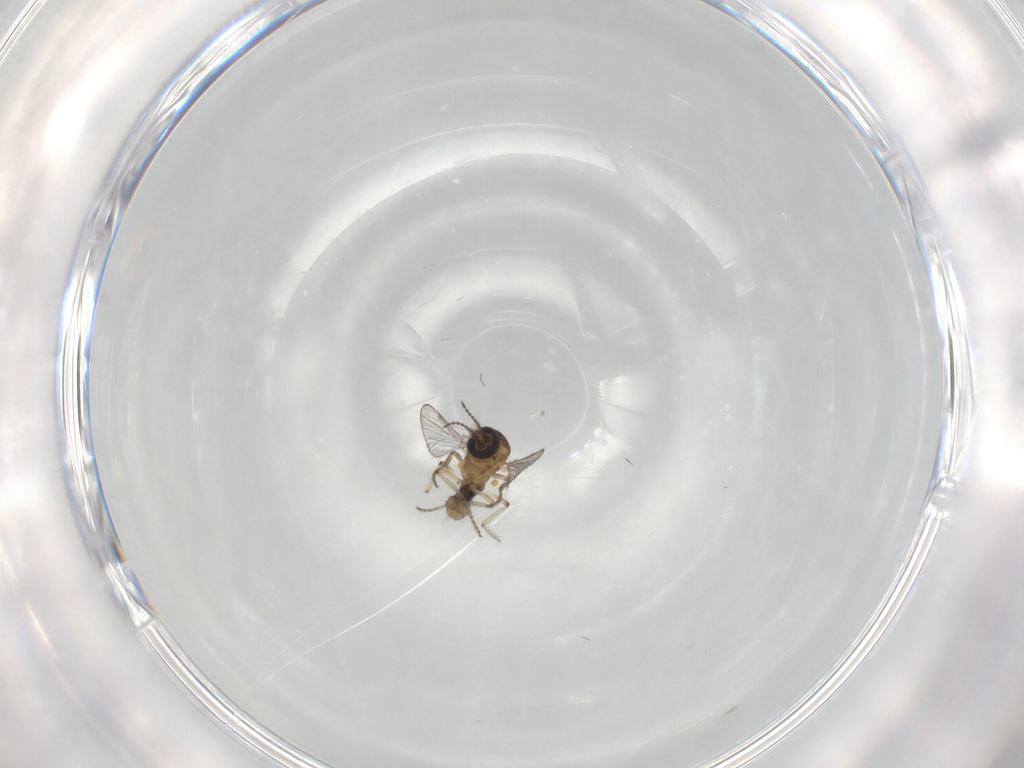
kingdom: Animalia
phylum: Arthropoda
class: Insecta
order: Diptera
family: Ceratopogonidae
